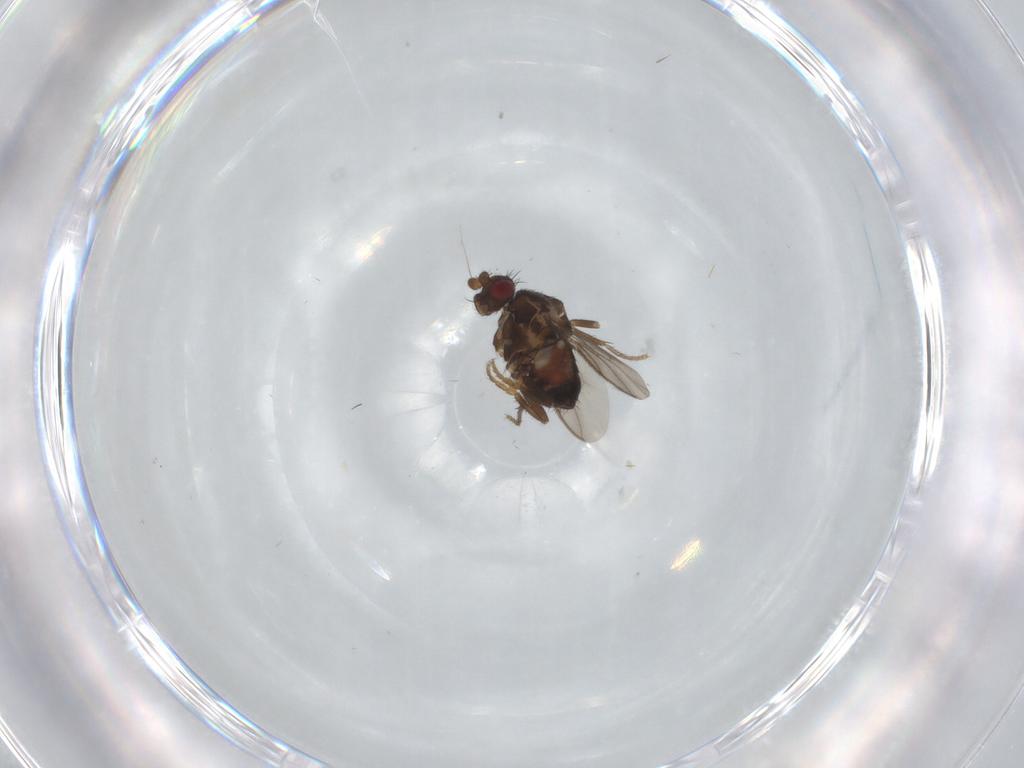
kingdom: Animalia
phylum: Arthropoda
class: Insecta
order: Diptera
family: Sphaeroceridae
